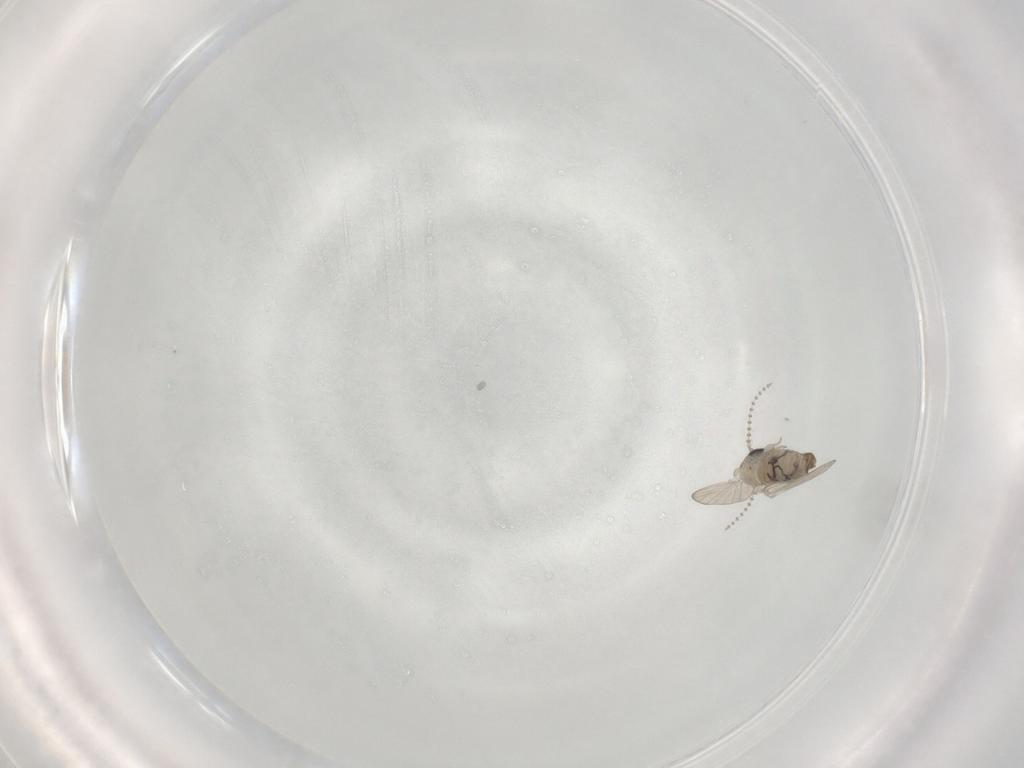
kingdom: Animalia
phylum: Arthropoda
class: Insecta
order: Diptera
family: Psychodidae
